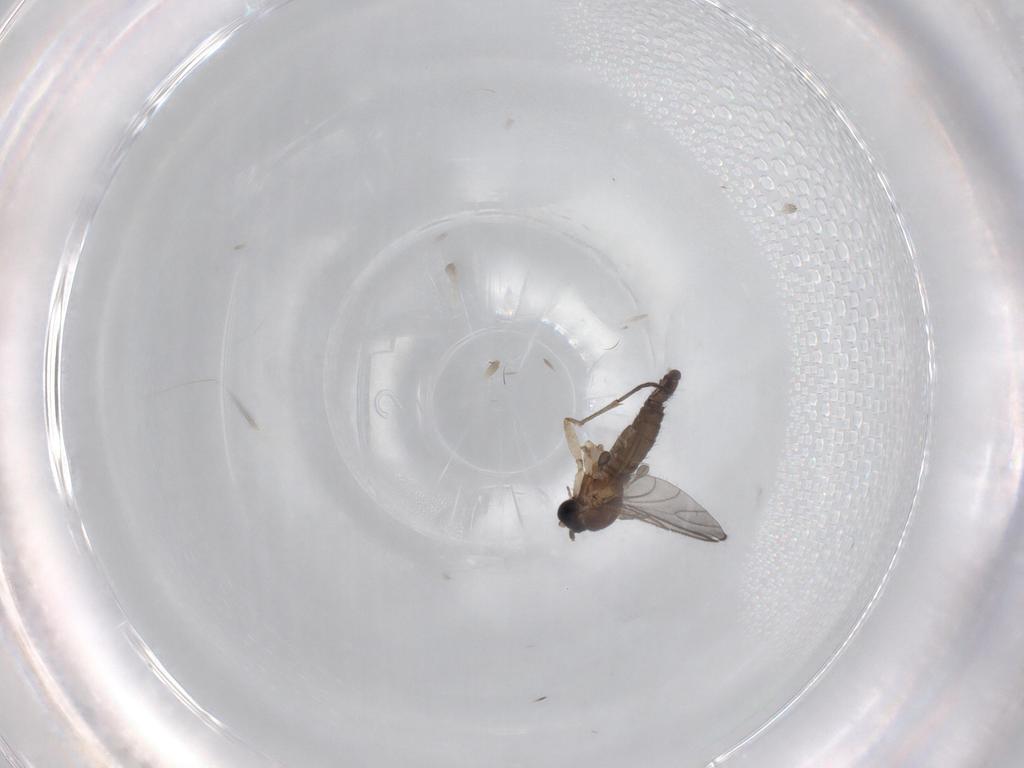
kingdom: Animalia
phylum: Arthropoda
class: Insecta
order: Diptera
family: Sciaridae
